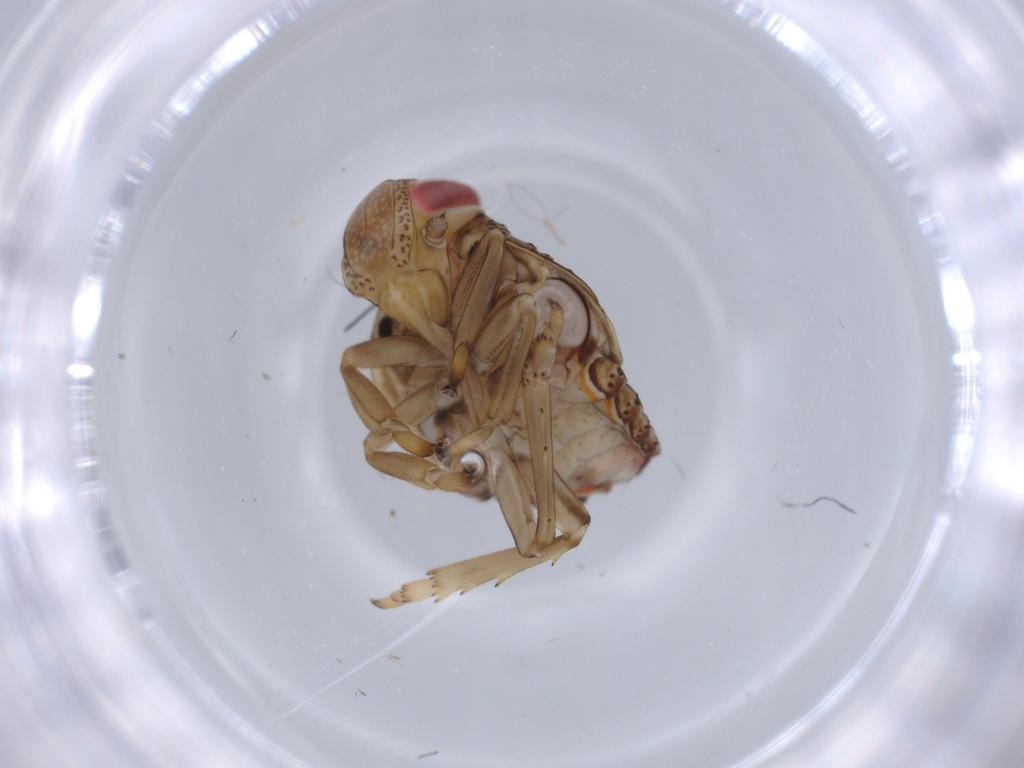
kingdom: Animalia
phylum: Arthropoda
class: Insecta
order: Hemiptera
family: Issidae
